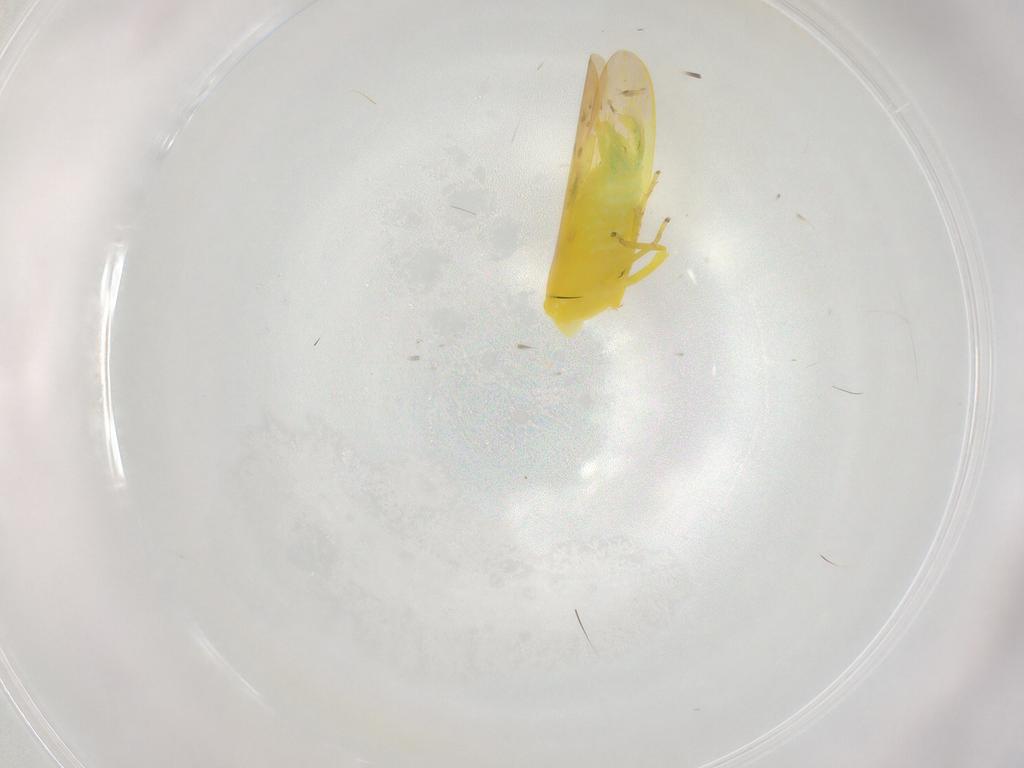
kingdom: Animalia
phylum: Arthropoda
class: Insecta
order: Hemiptera
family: Cicadellidae
